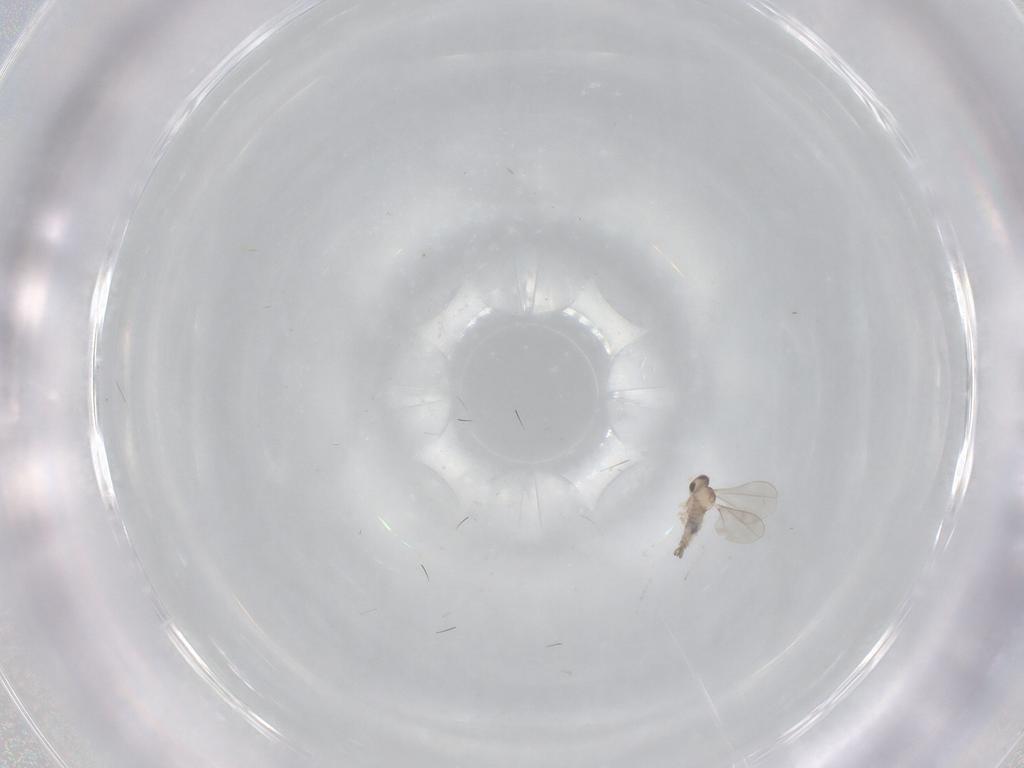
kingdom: Animalia
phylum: Arthropoda
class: Insecta
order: Diptera
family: Cecidomyiidae
